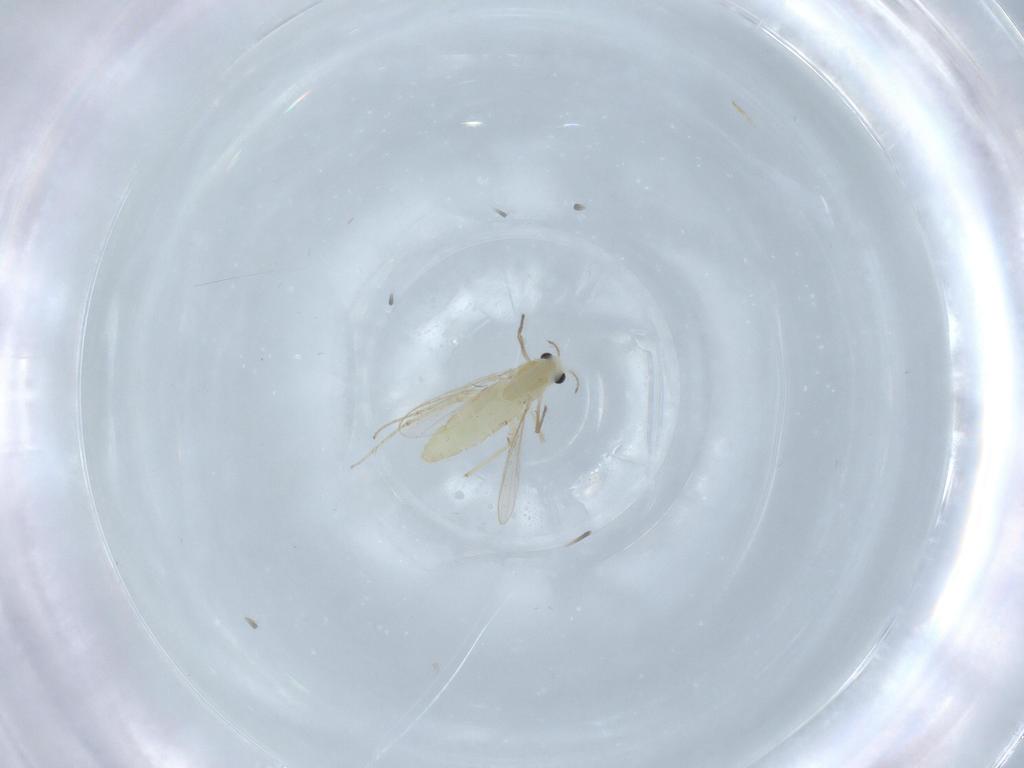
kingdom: Animalia
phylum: Arthropoda
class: Insecta
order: Diptera
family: Chironomidae
